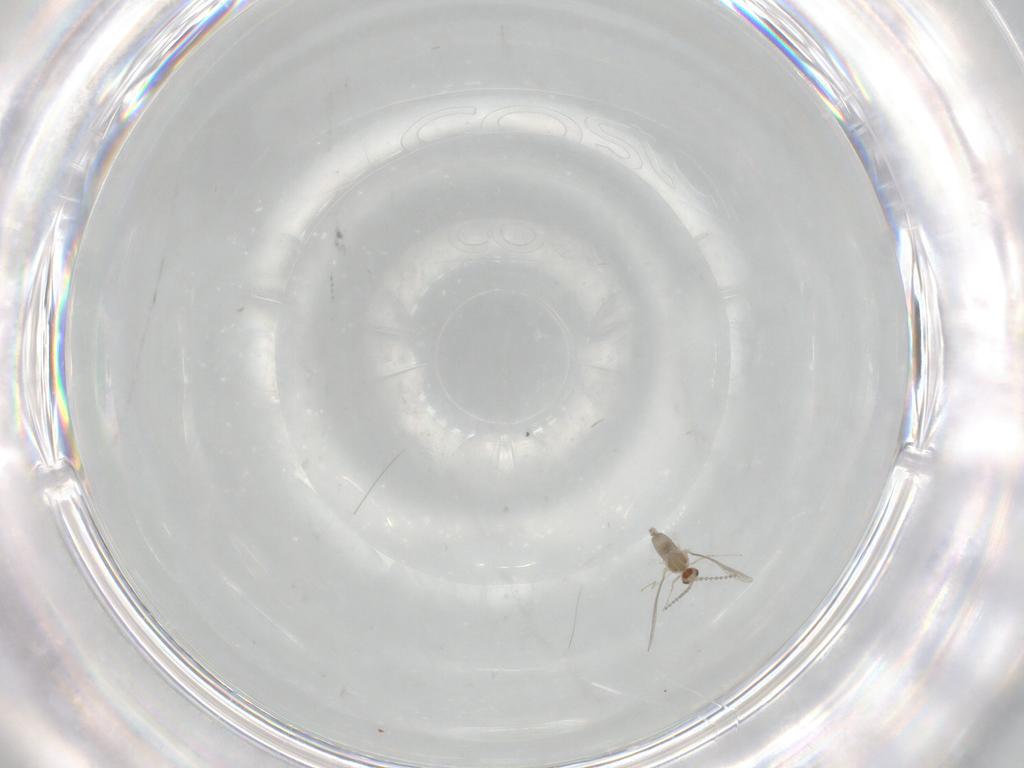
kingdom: Animalia
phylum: Arthropoda
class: Insecta
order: Diptera
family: Cecidomyiidae
